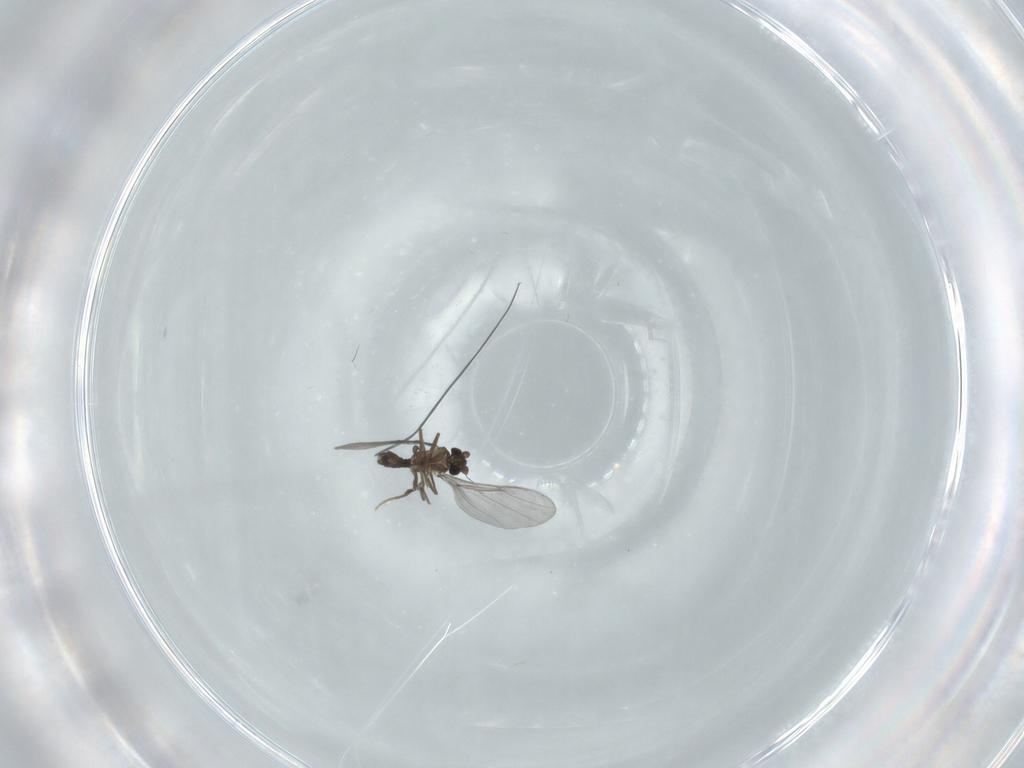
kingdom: Animalia
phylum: Arthropoda
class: Insecta
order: Diptera
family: Phoridae
